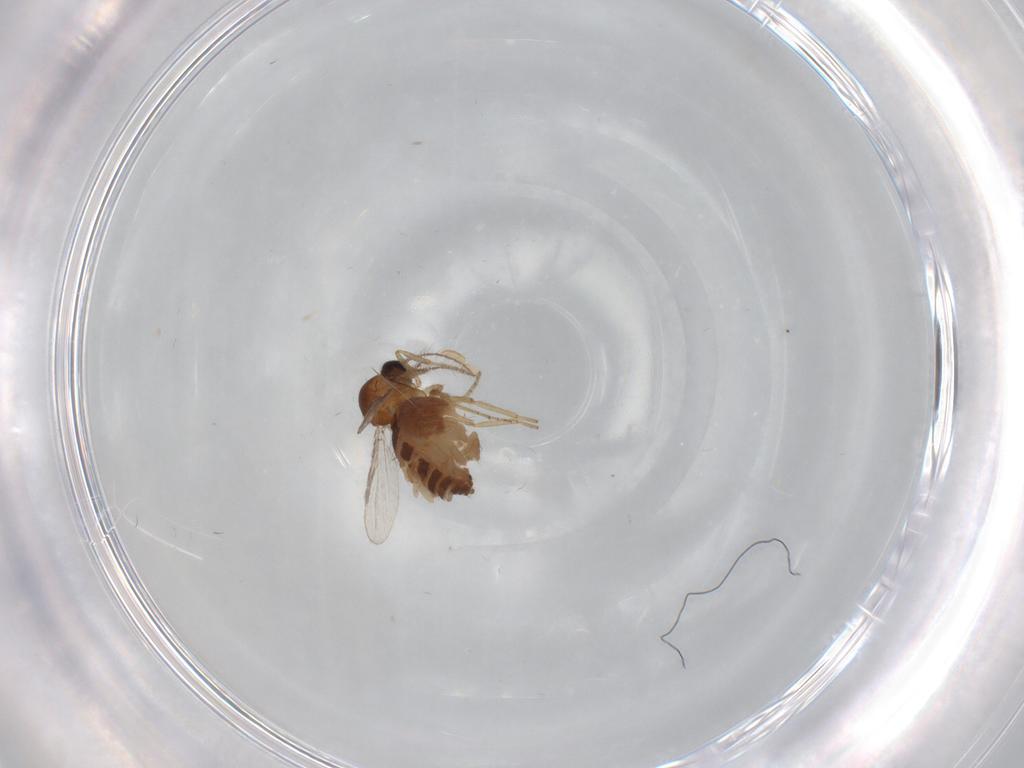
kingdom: Animalia
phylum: Arthropoda
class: Insecta
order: Diptera
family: Ceratopogonidae
